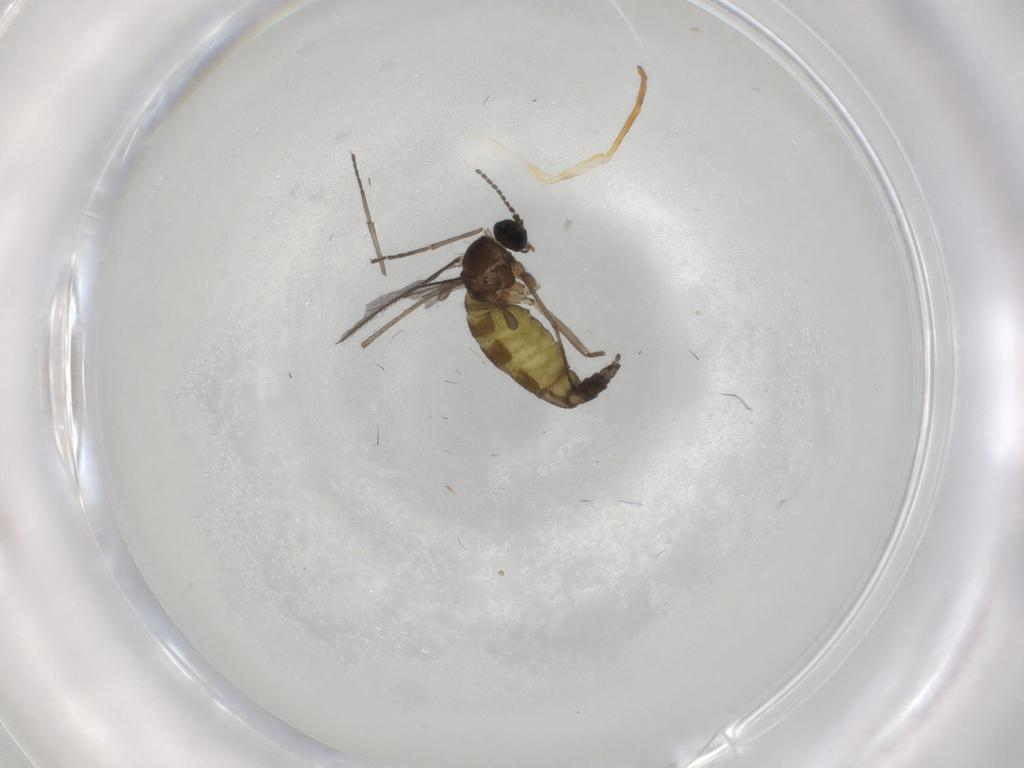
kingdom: Animalia
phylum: Arthropoda
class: Insecta
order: Diptera
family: Sciaridae
